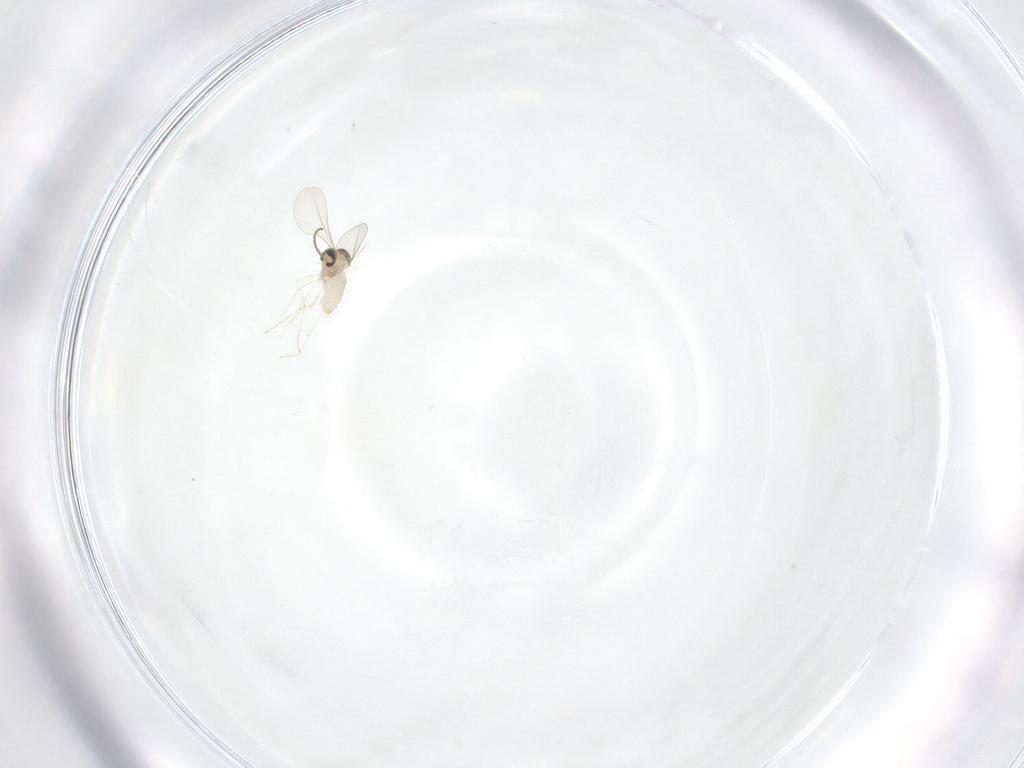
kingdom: Animalia
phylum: Arthropoda
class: Insecta
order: Diptera
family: Cecidomyiidae
